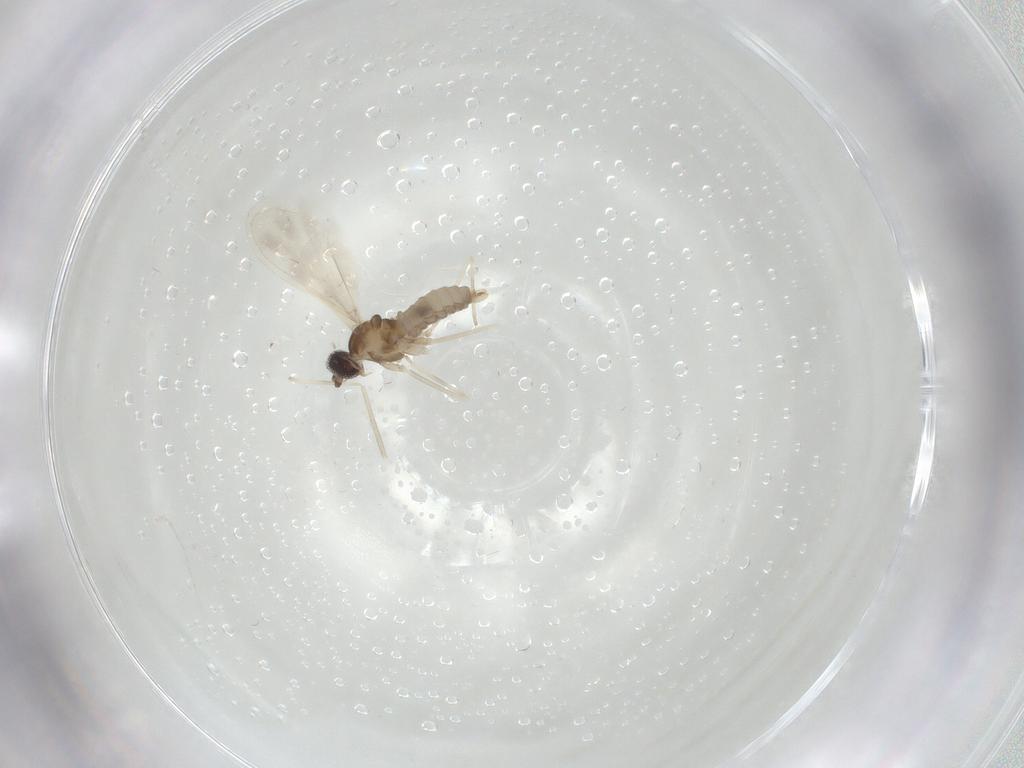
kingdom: Animalia
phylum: Arthropoda
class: Insecta
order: Diptera
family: Cecidomyiidae
